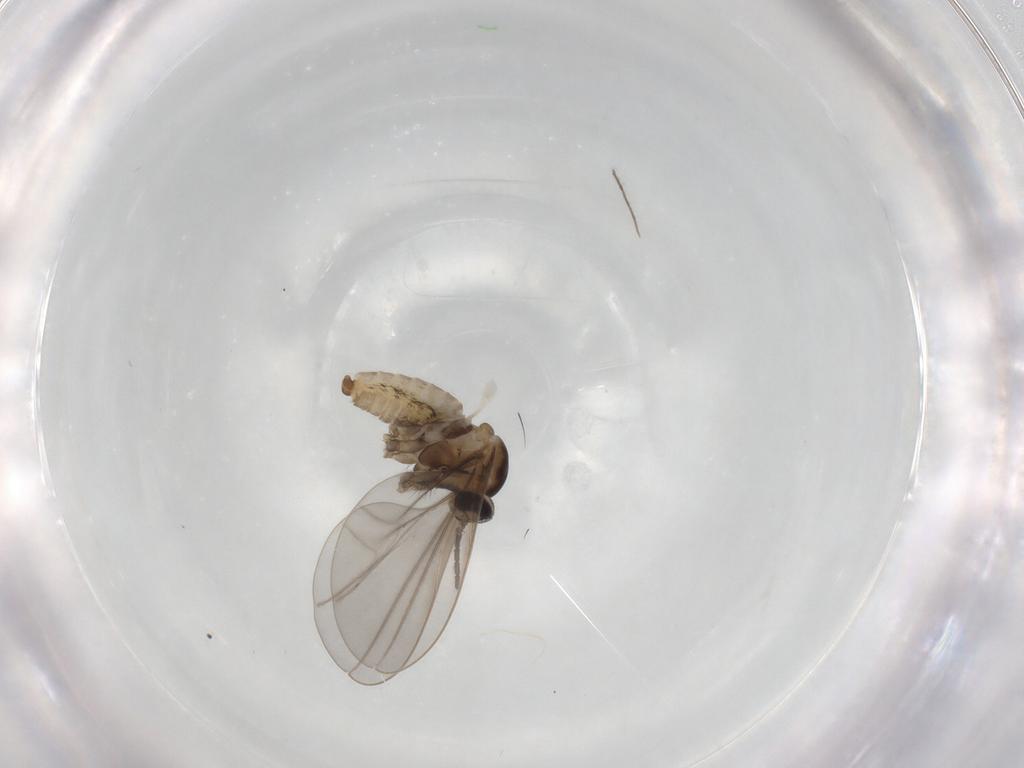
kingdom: Animalia
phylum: Arthropoda
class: Insecta
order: Diptera
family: Cecidomyiidae
